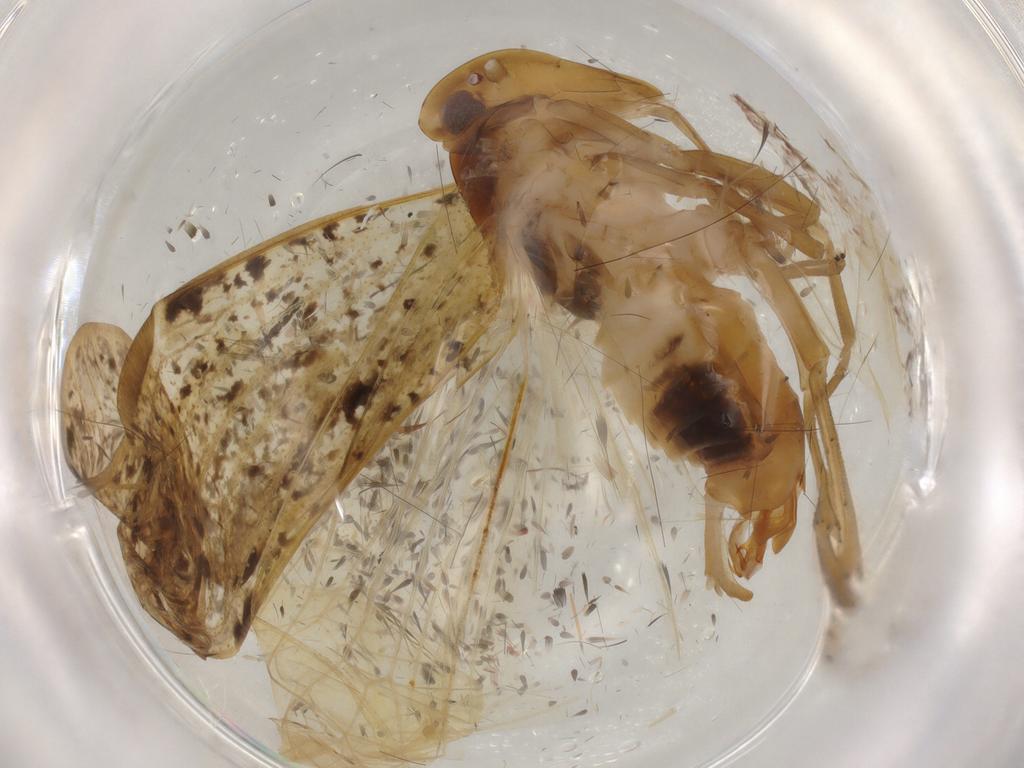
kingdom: Animalia
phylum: Arthropoda
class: Insecta
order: Hemiptera
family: Cixiidae
